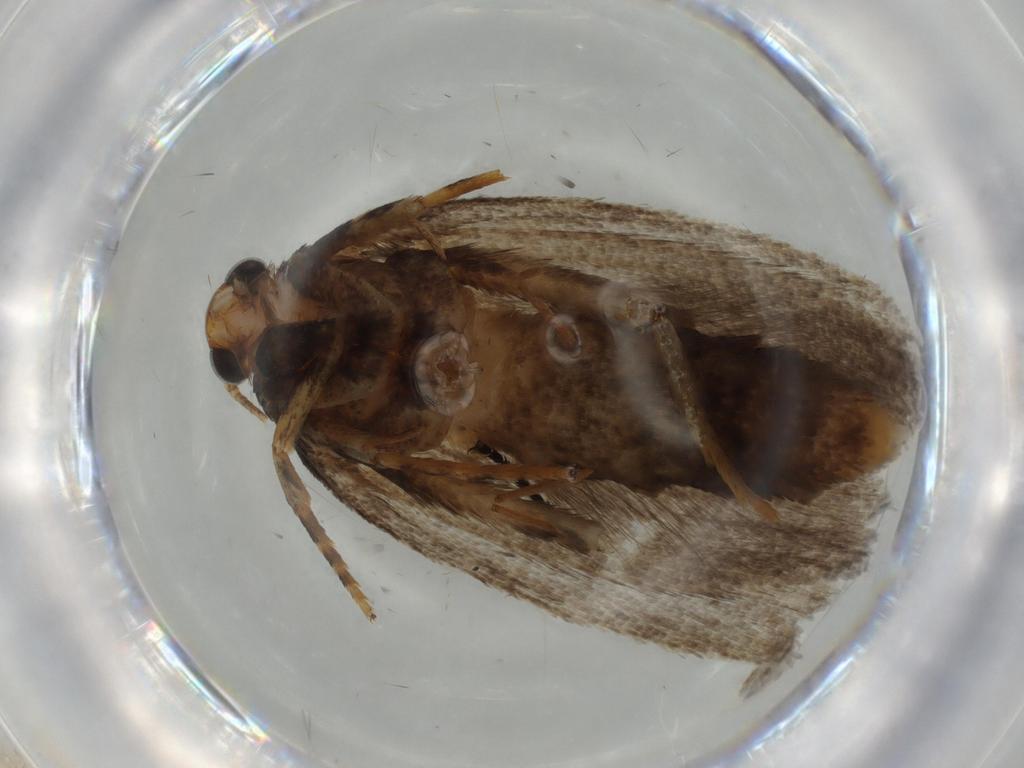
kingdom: Animalia
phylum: Arthropoda
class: Insecta
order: Lepidoptera
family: Oecophoridae
